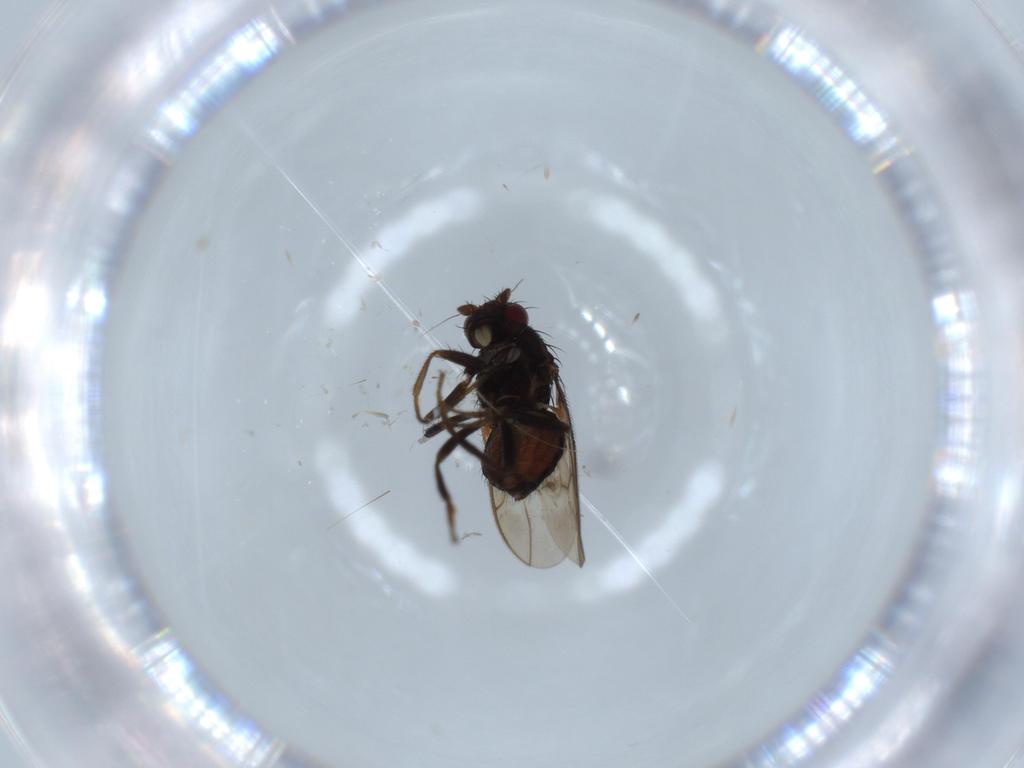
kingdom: Animalia
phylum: Arthropoda
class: Insecta
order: Diptera
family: Sphaeroceridae
